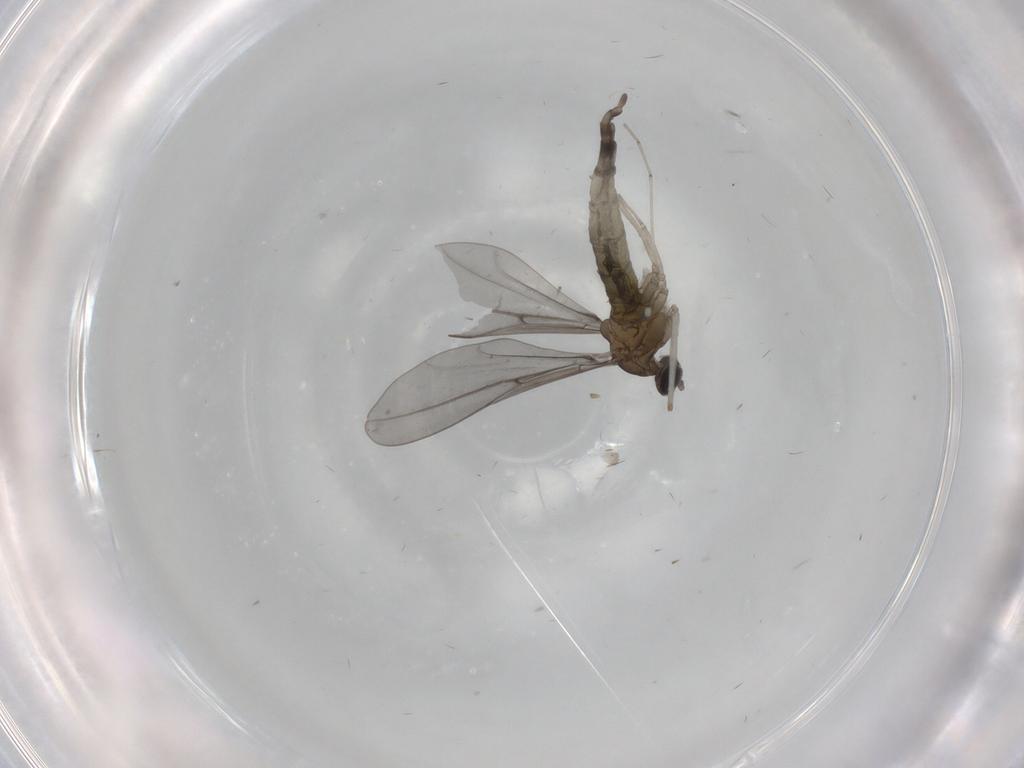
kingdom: Animalia
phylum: Arthropoda
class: Insecta
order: Diptera
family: Cecidomyiidae
